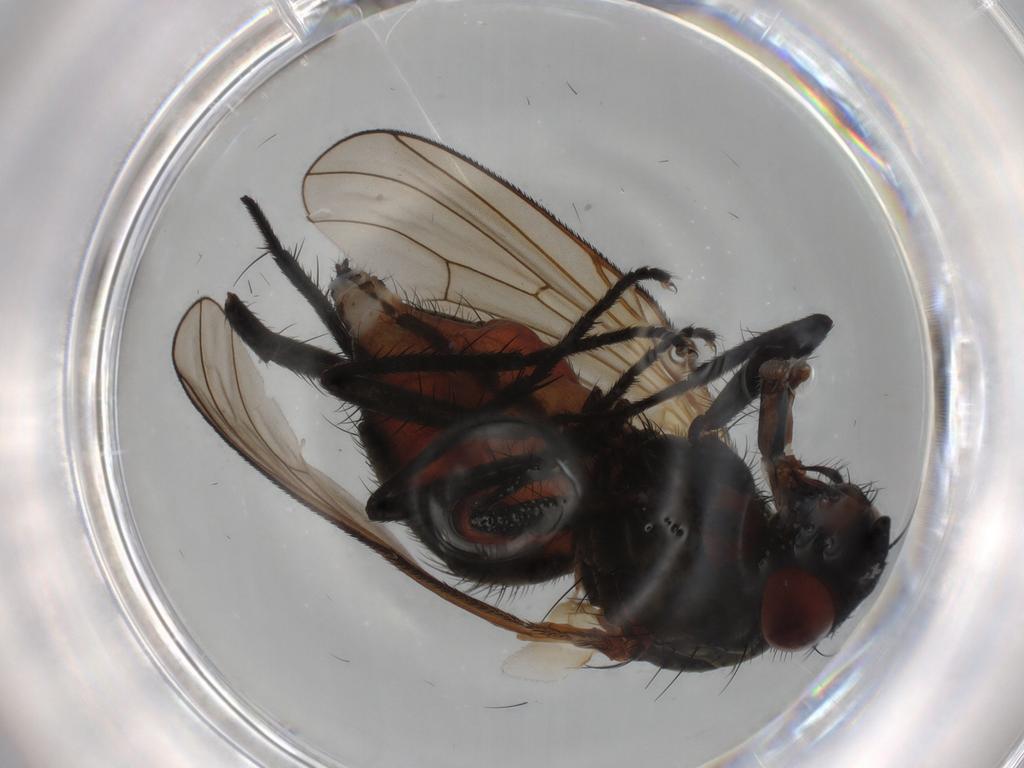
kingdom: Animalia
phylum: Arthropoda
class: Insecta
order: Diptera
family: Anthomyiidae
